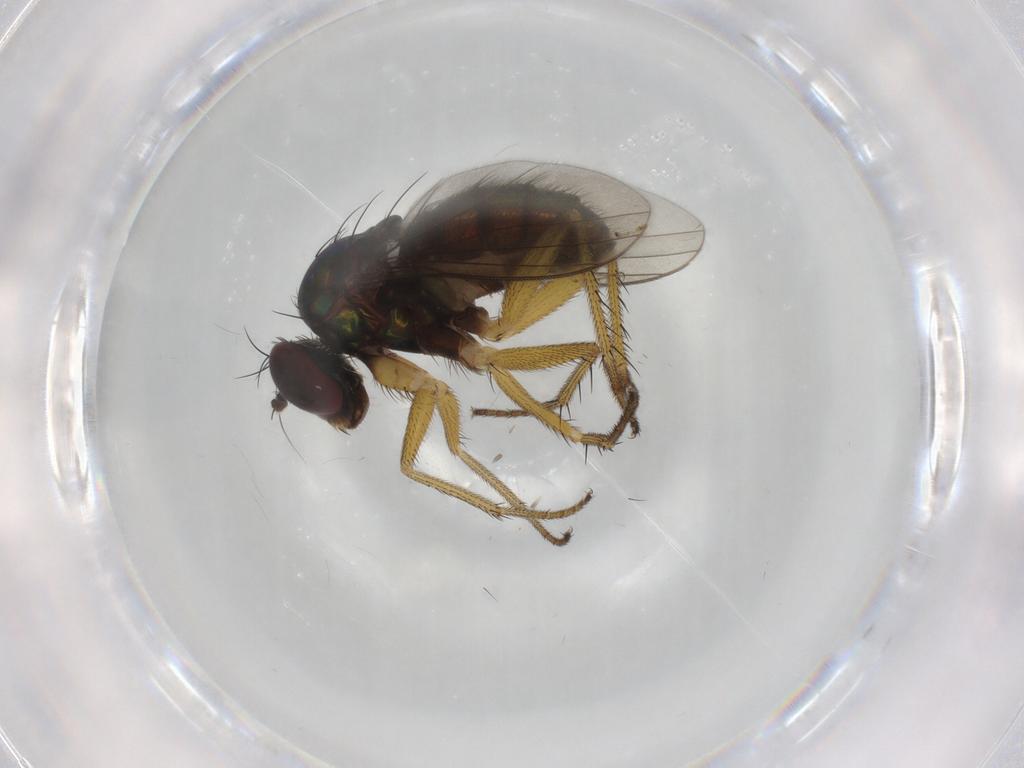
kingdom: Animalia
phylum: Arthropoda
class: Insecta
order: Diptera
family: Dolichopodidae
